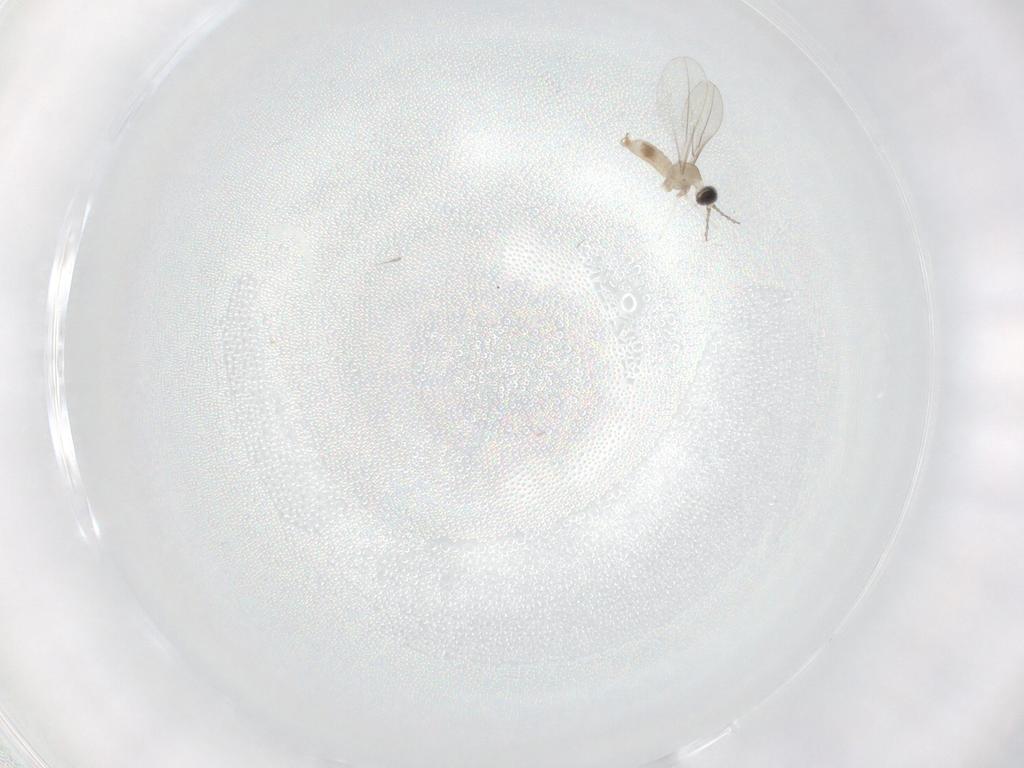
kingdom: Animalia
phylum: Arthropoda
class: Insecta
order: Diptera
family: Cecidomyiidae
